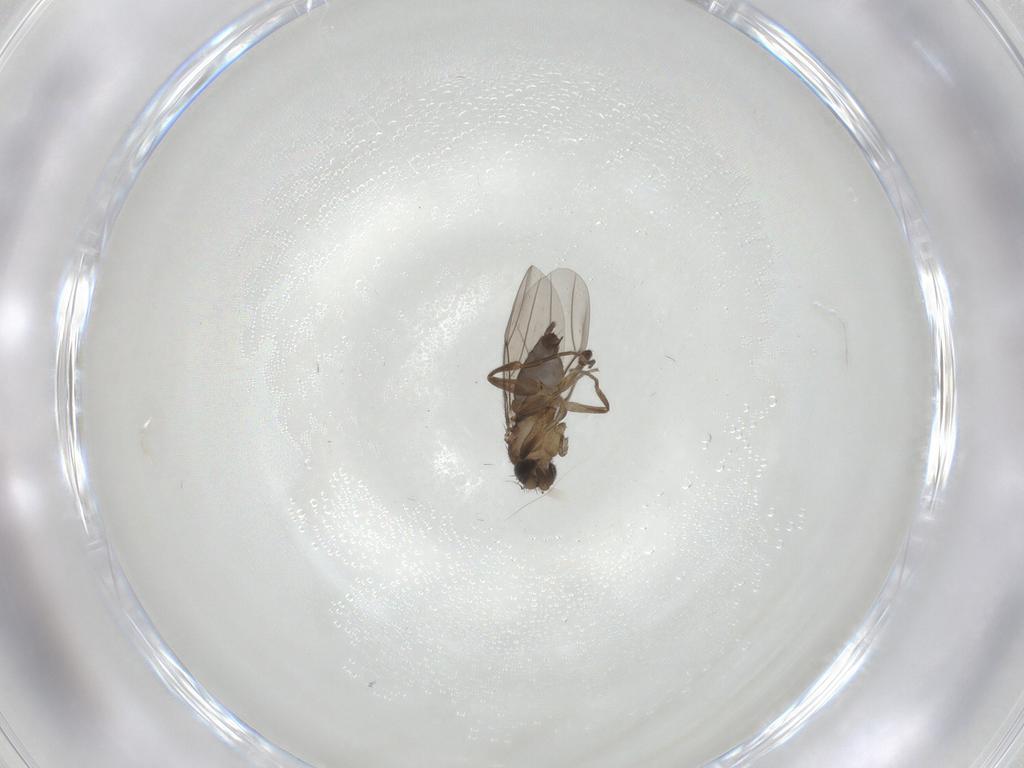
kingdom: Animalia
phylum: Arthropoda
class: Insecta
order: Diptera
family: Phoridae
